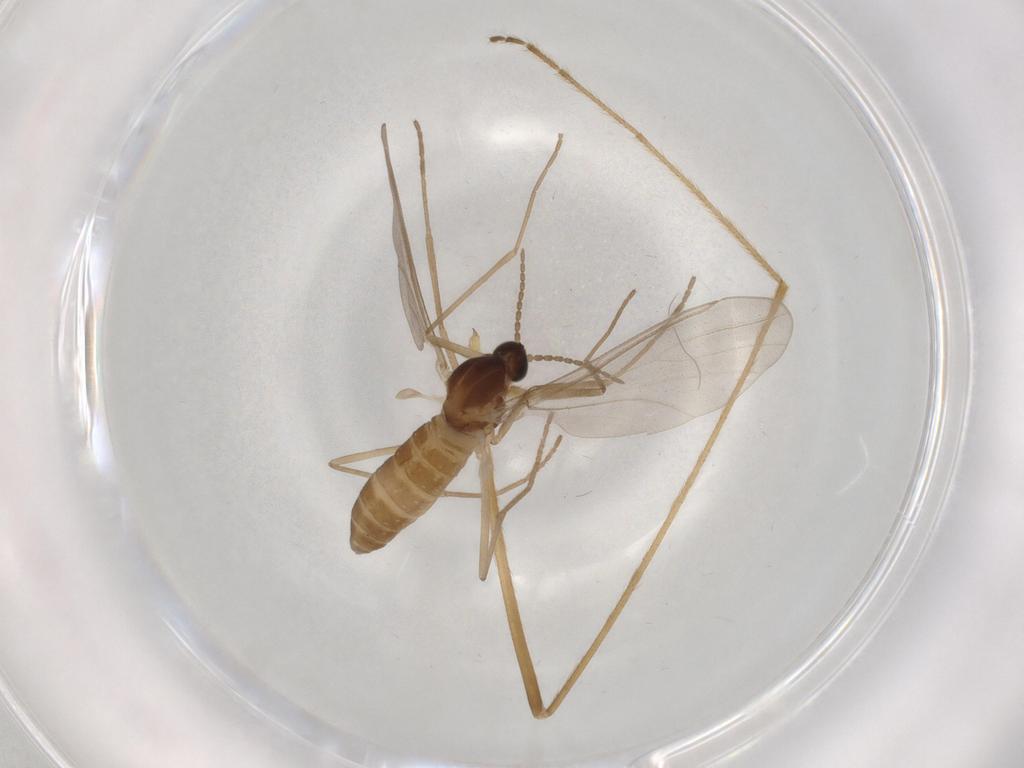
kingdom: Animalia
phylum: Arthropoda
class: Insecta
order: Diptera
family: Cecidomyiidae
